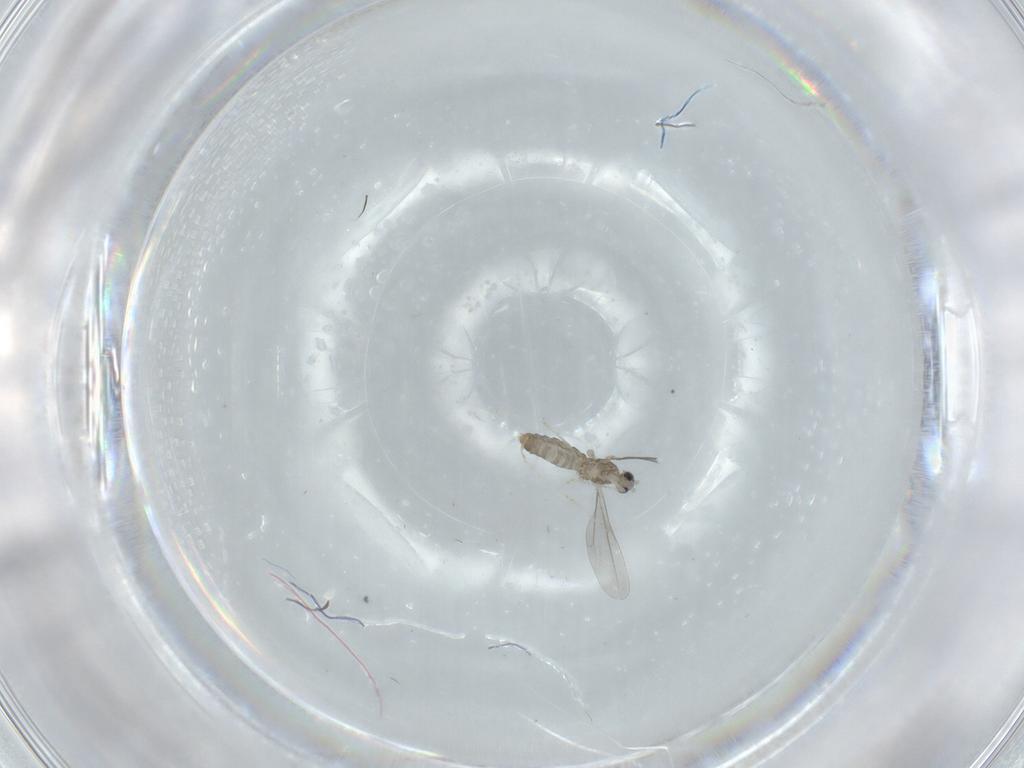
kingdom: Animalia
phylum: Arthropoda
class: Insecta
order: Diptera
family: Cecidomyiidae
